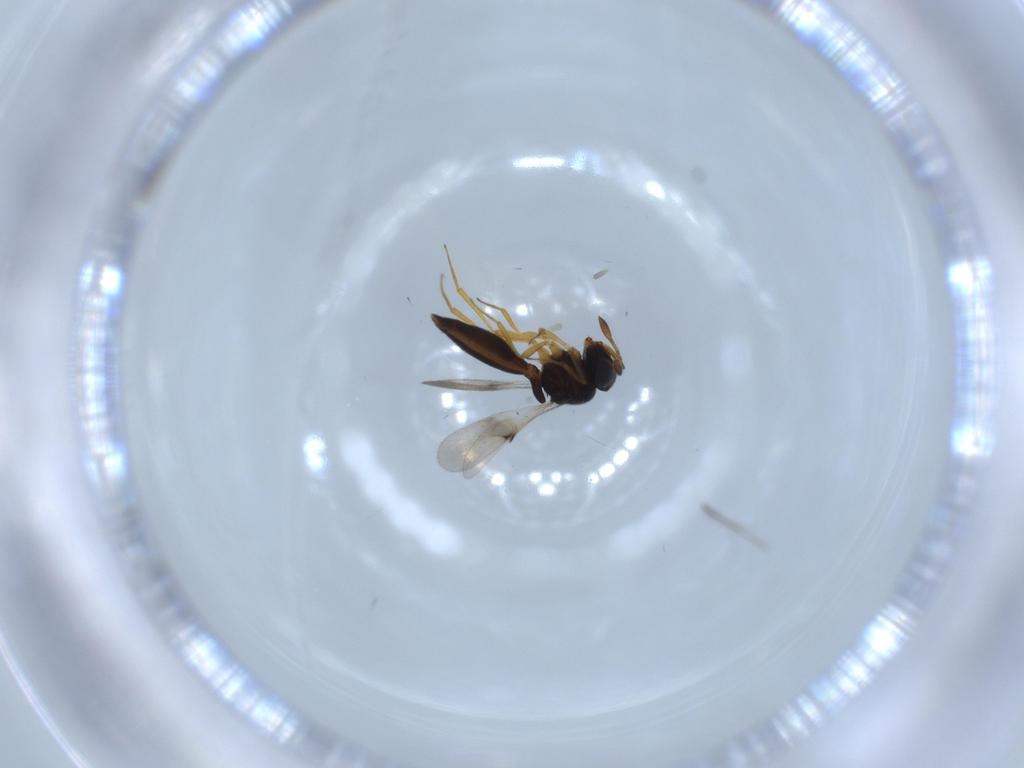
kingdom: Animalia
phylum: Arthropoda
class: Insecta
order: Hymenoptera
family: Platygastridae
